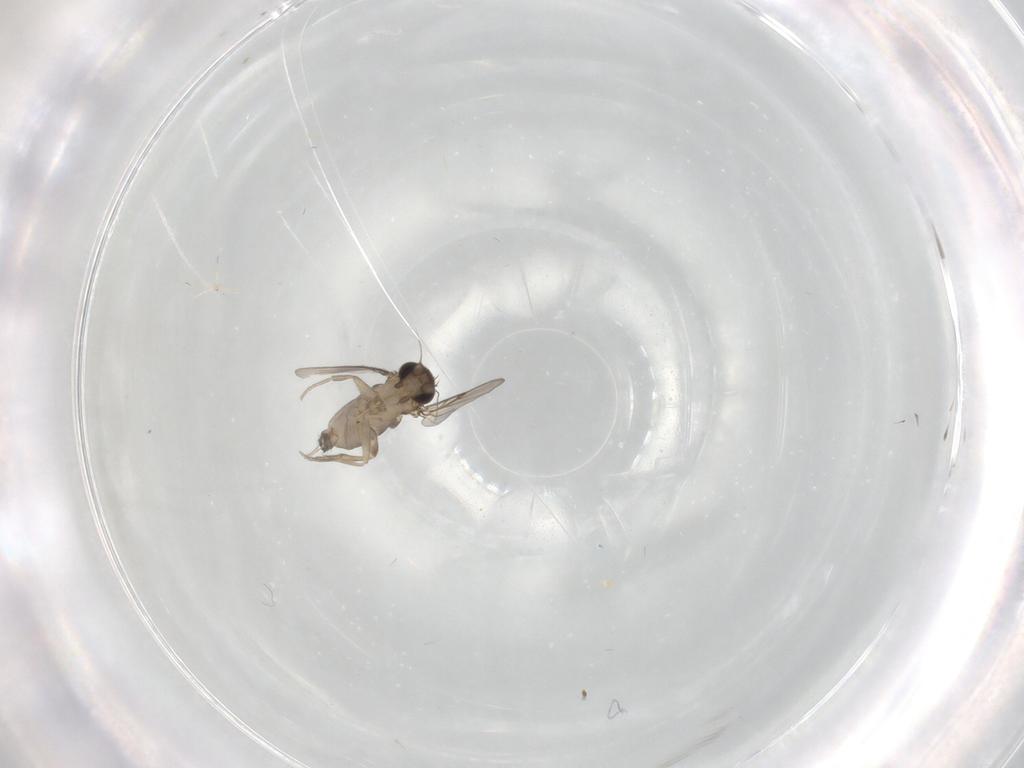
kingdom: Animalia
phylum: Arthropoda
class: Insecta
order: Diptera
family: Phoridae
